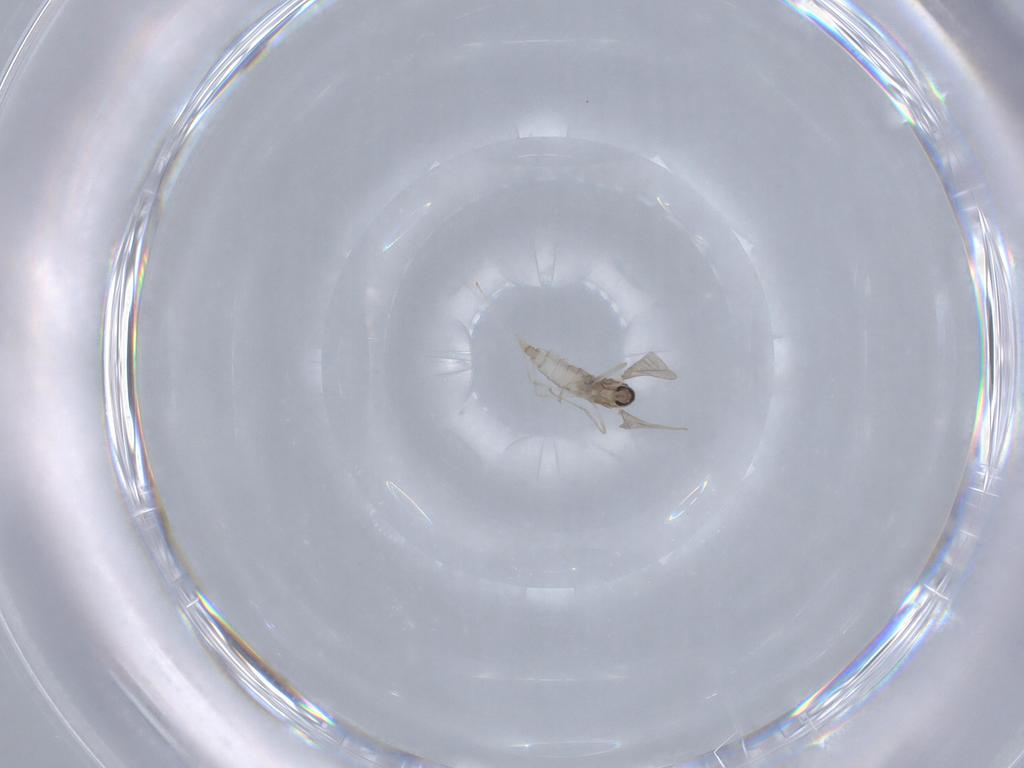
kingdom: Animalia
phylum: Arthropoda
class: Insecta
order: Diptera
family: Cecidomyiidae
